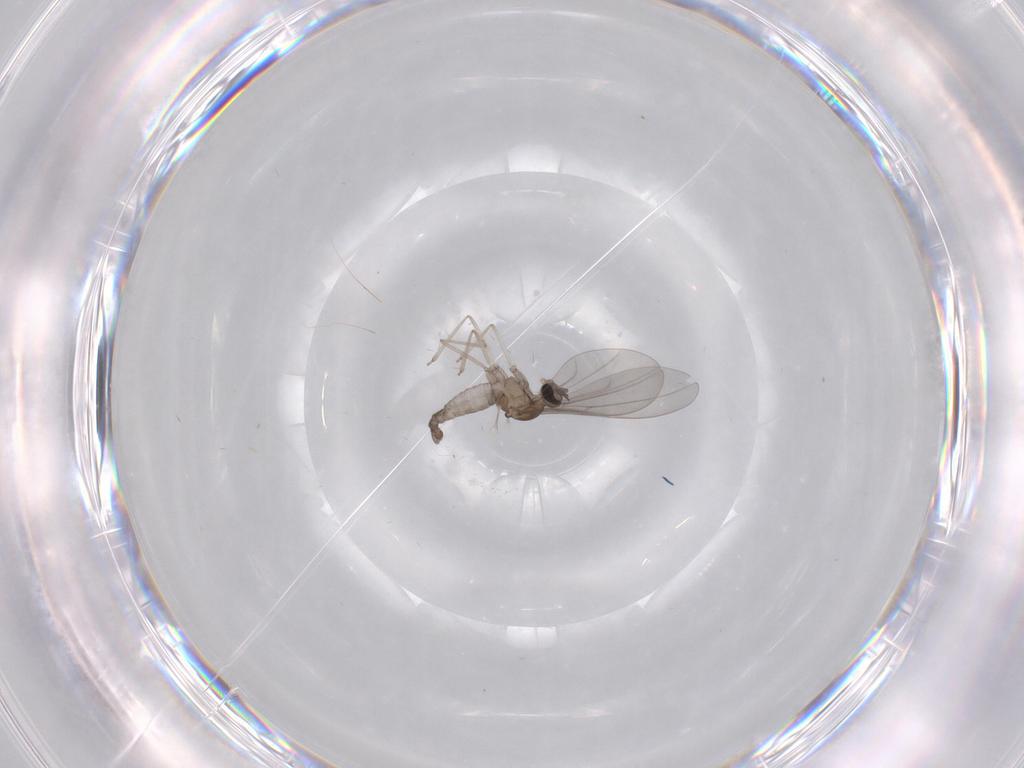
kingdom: Animalia
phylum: Arthropoda
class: Insecta
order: Diptera
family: Cecidomyiidae
